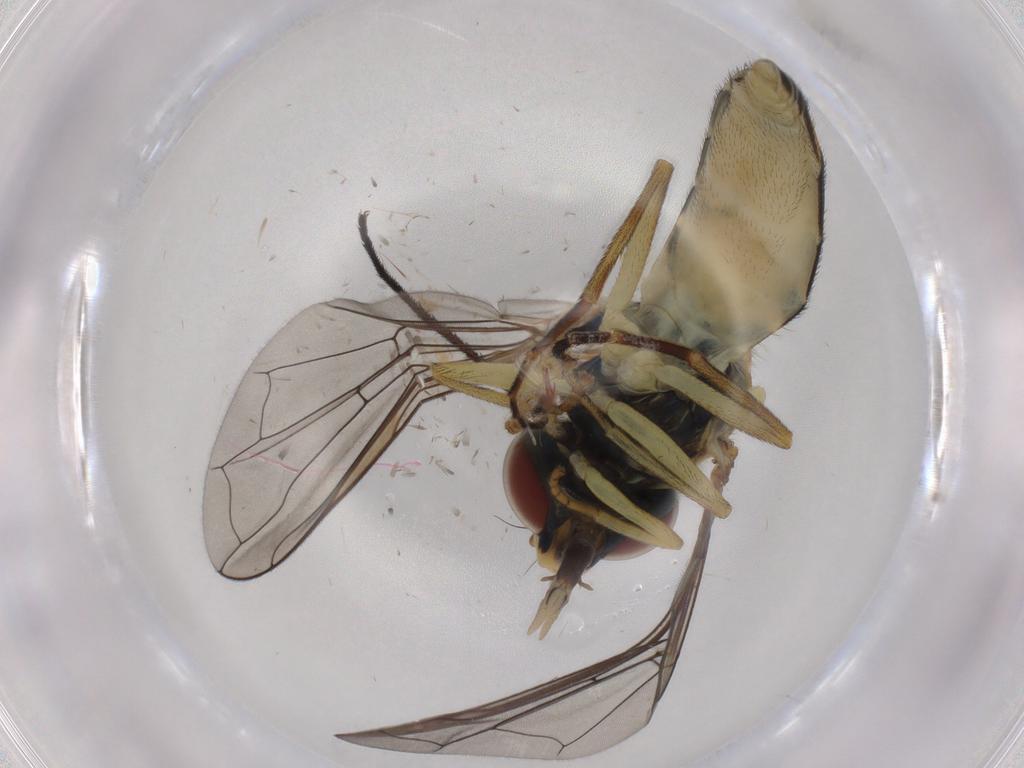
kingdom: Animalia
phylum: Arthropoda
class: Insecta
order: Diptera
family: Syrphidae
